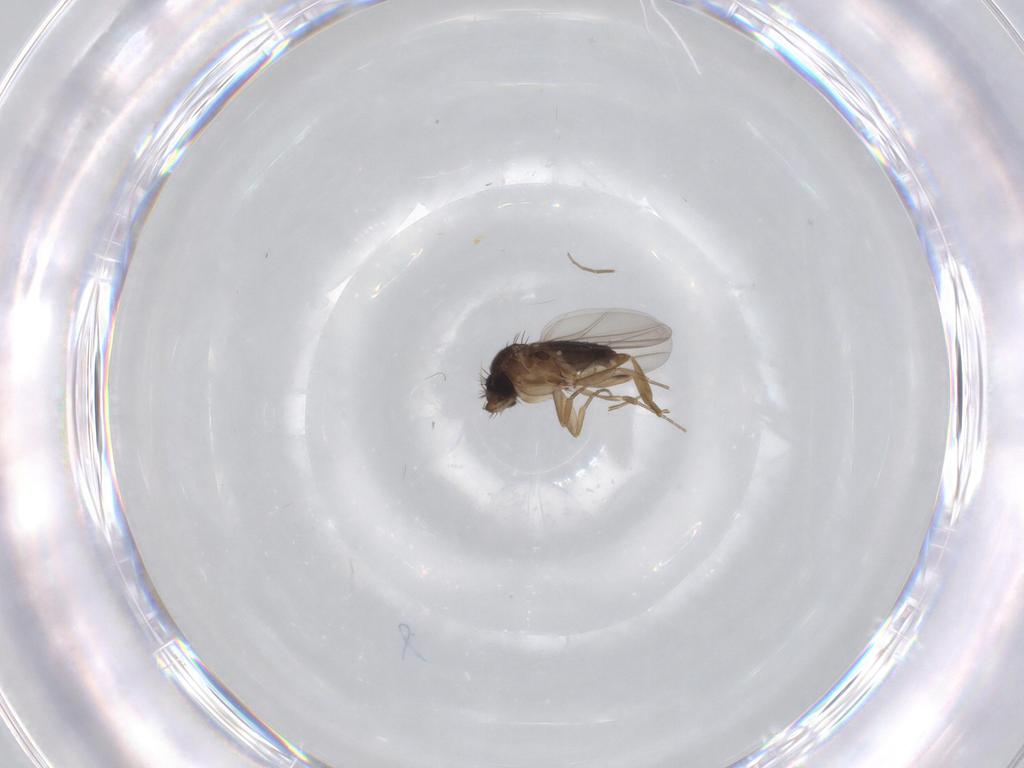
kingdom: Animalia
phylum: Arthropoda
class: Insecta
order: Diptera
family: Phoridae
